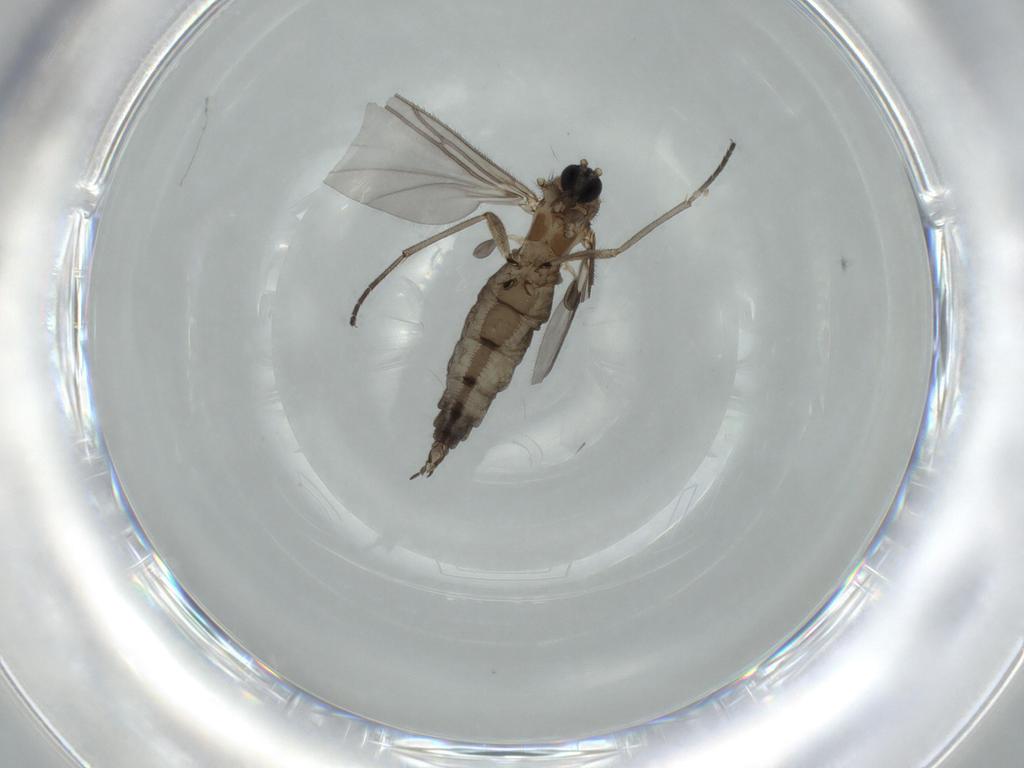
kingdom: Animalia
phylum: Arthropoda
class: Insecta
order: Diptera
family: Sciaridae
